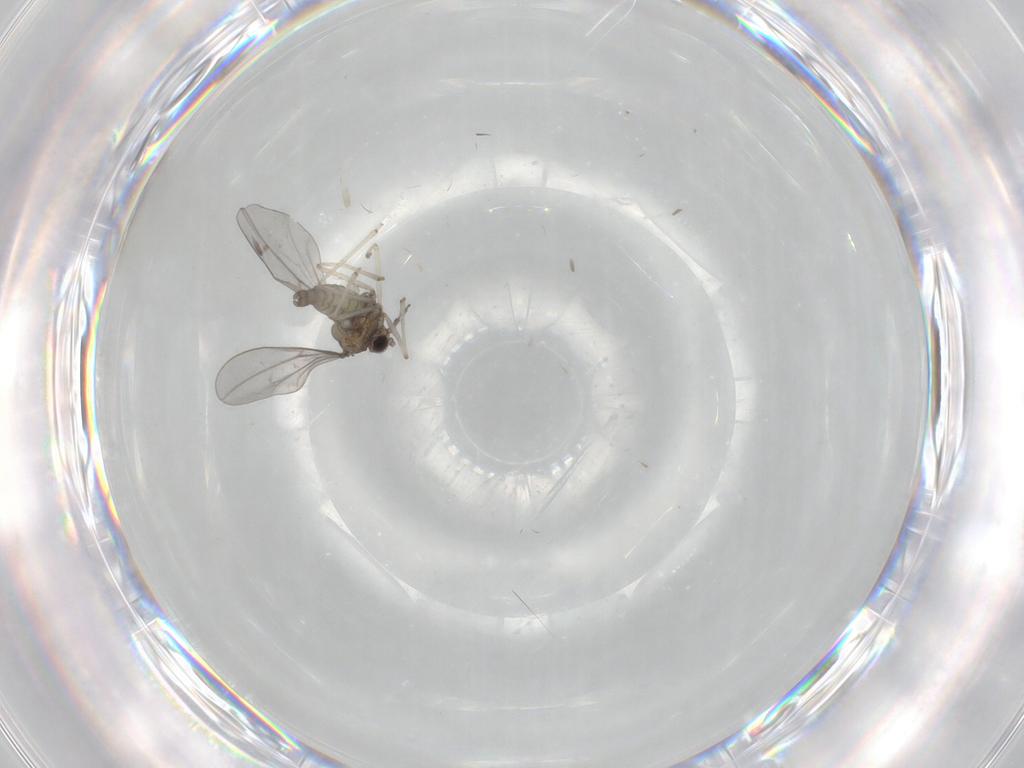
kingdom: Animalia
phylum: Arthropoda
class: Insecta
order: Diptera
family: Cecidomyiidae
